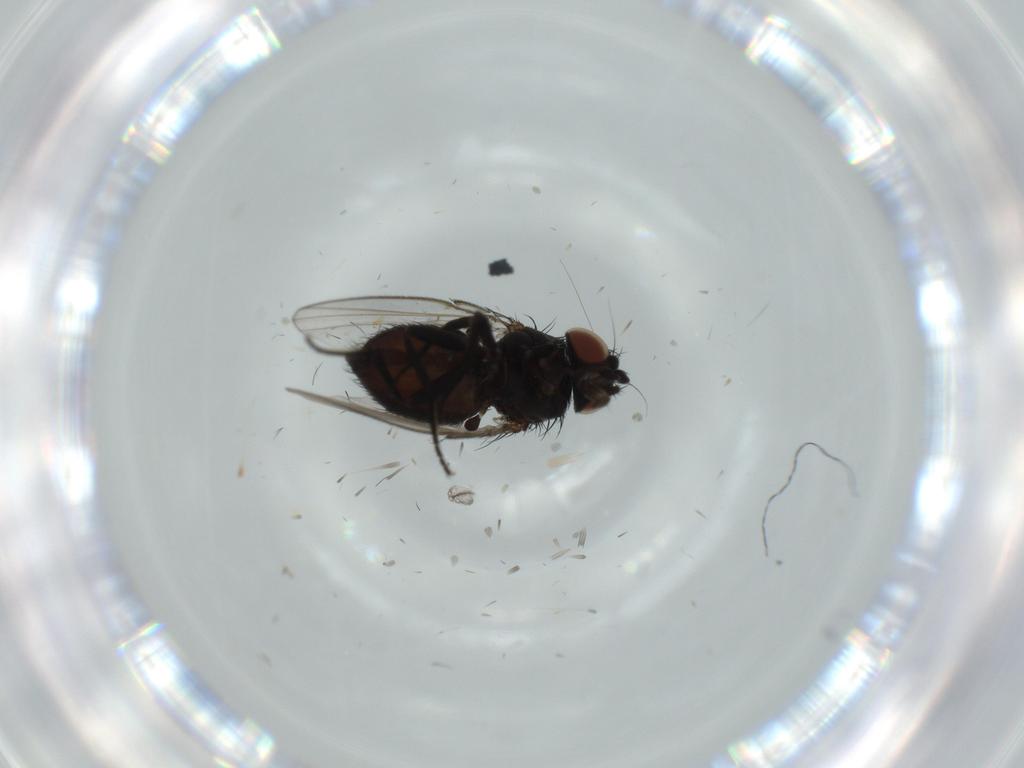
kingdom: Animalia
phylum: Arthropoda
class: Insecta
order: Diptera
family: Milichiidae
